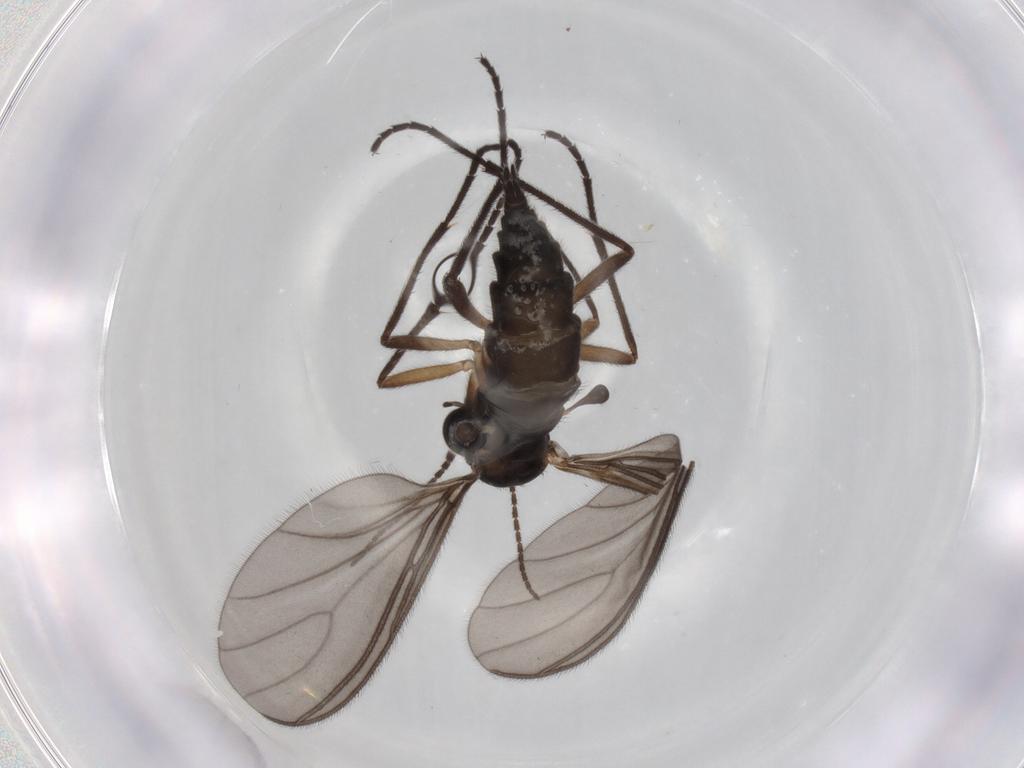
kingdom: Animalia
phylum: Arthropoda
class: Insecta
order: Diptera
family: Sciaridae
